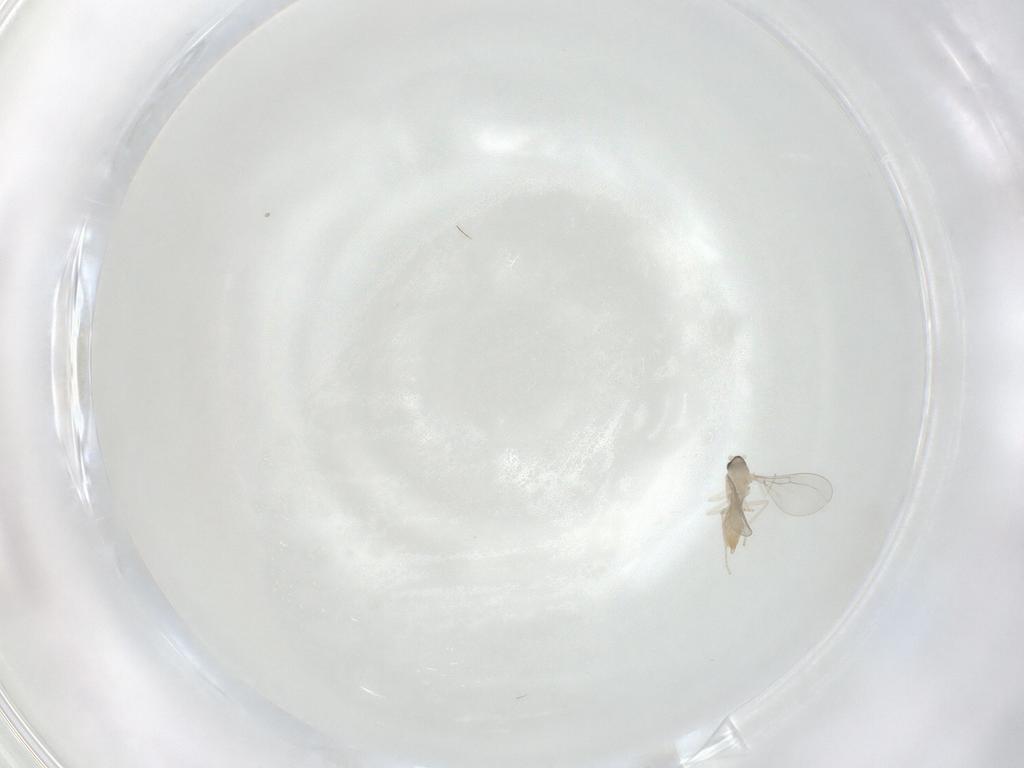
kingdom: Animalia
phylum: Arthropoda
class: Insecta
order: Diptera
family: Cecidomyiidae
